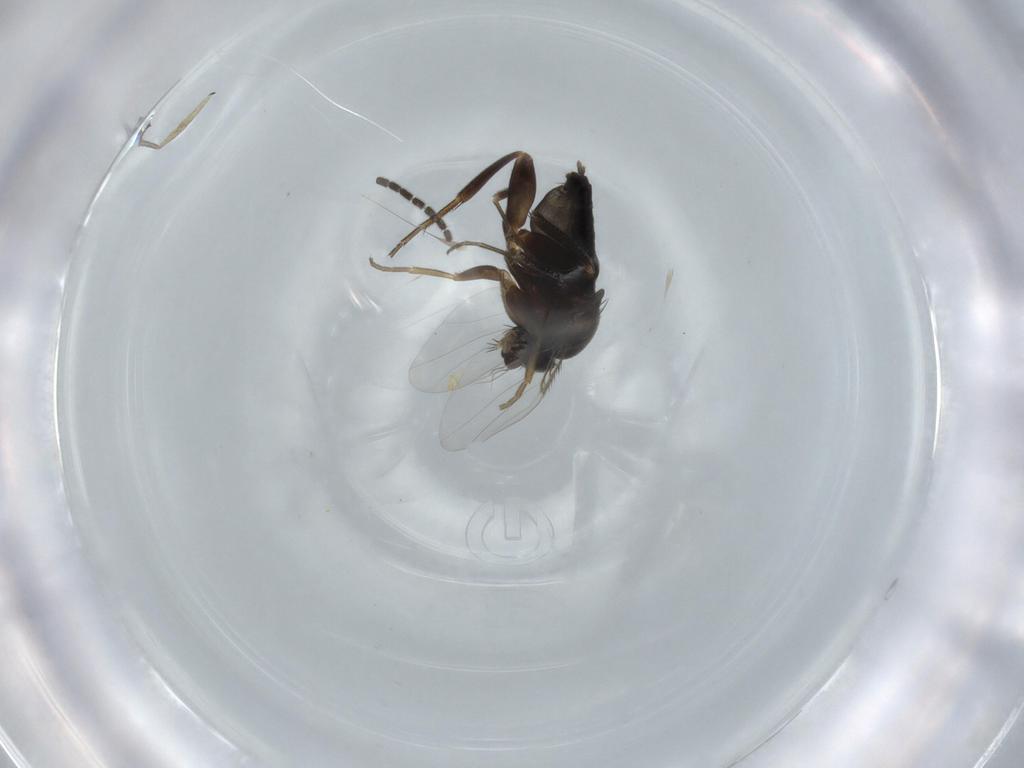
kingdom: Animalia
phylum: Arthropoda
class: Insecta
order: Diptera
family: Phoridae
